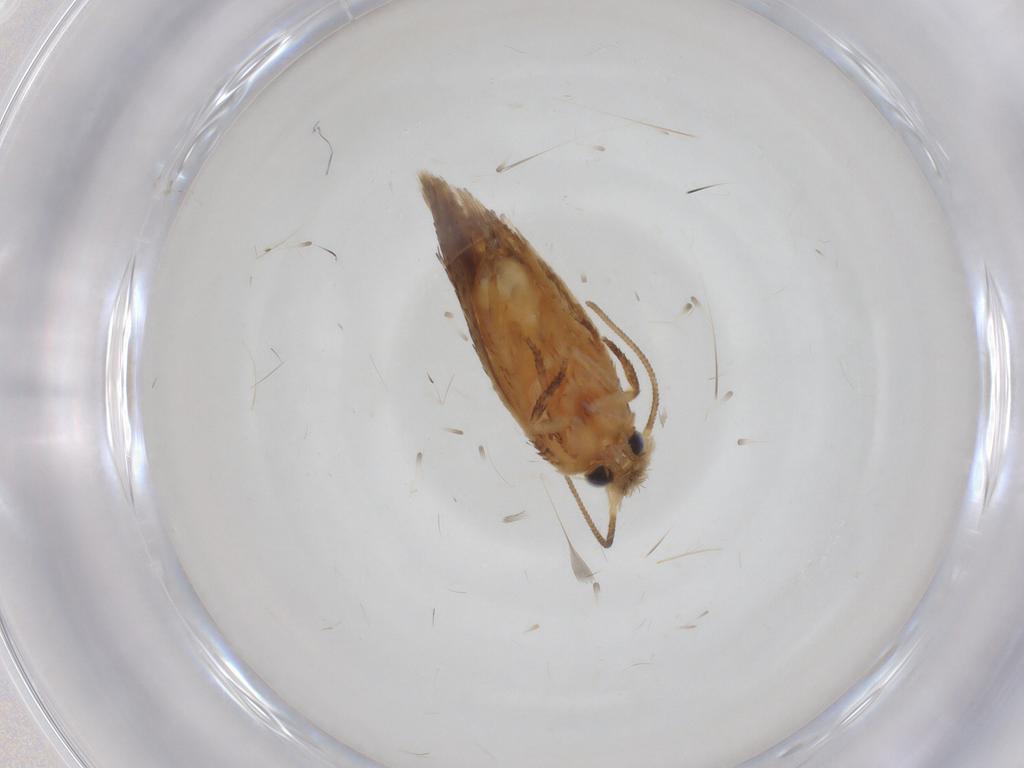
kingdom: Animalia
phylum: Arthropoda
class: Insecta
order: Lepidoptera
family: Nepticulidae
